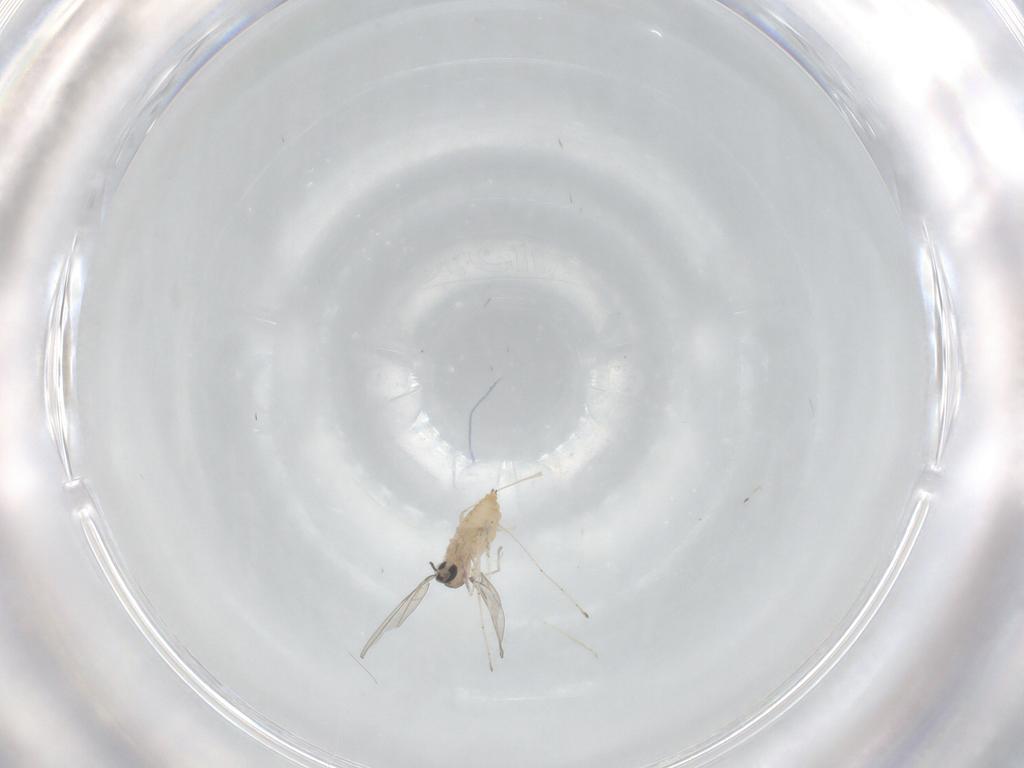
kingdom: Animalia
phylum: Arthropoda
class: Insecta
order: Diptera
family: Cecidomyiidae
